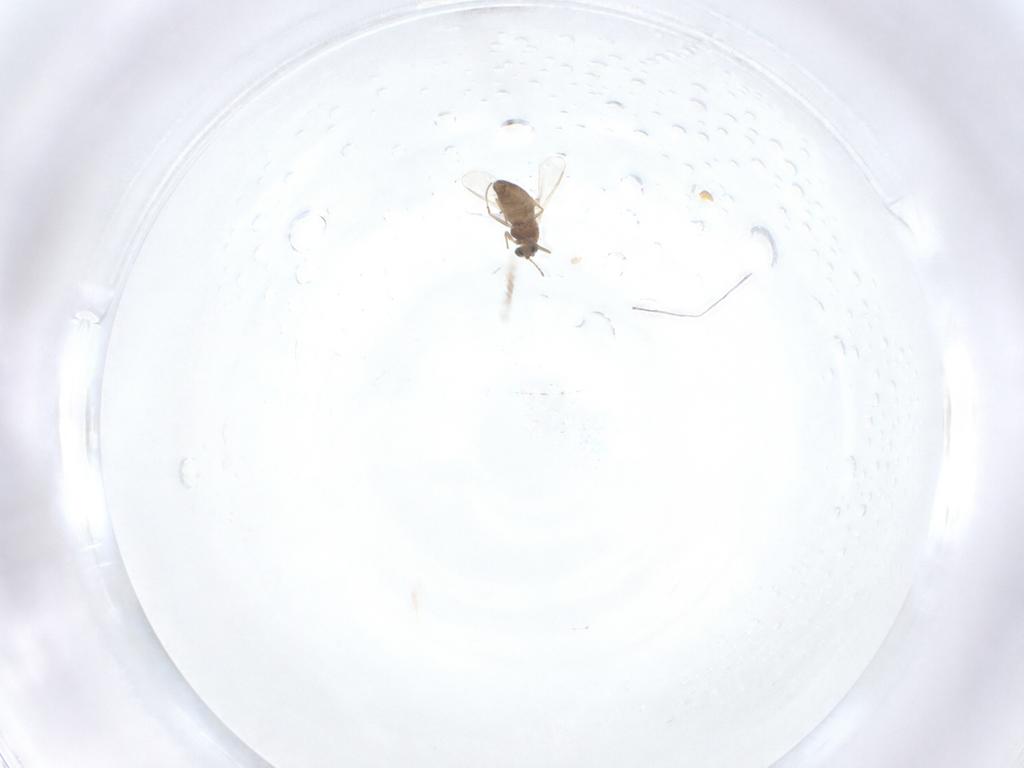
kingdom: Animalia
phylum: Arthropoda
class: Insecta
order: Diptera
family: Chironomidae
